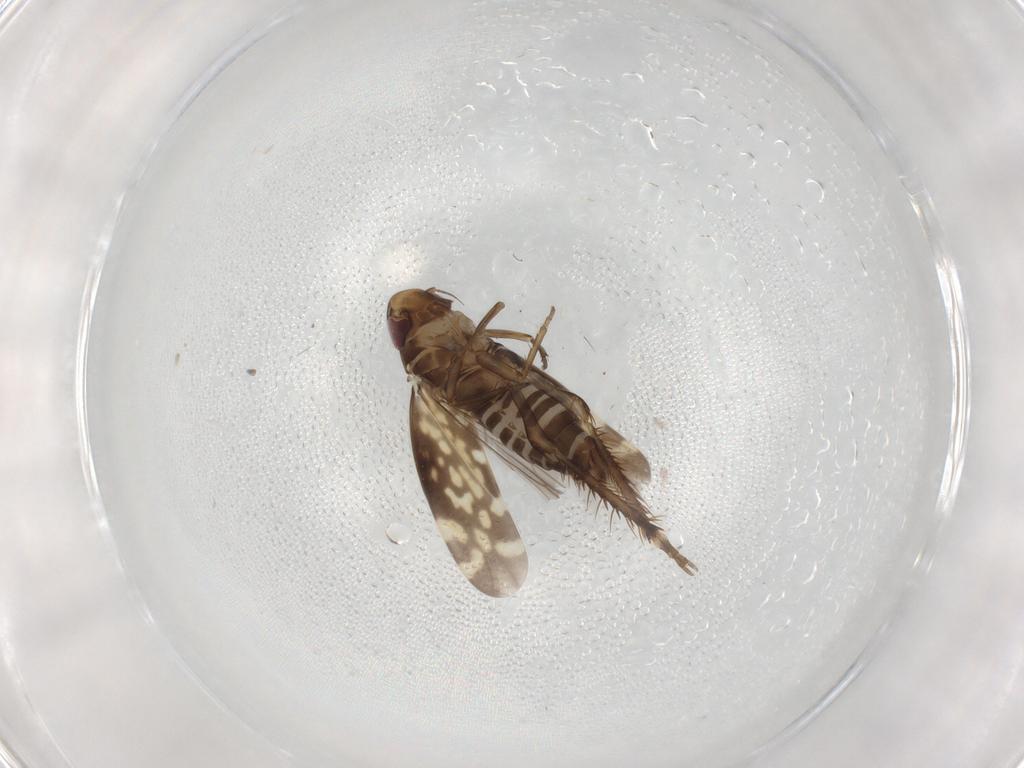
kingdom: Animalia
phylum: Arthropoda
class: Insecta
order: Hemiptera
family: Cicadellidae
